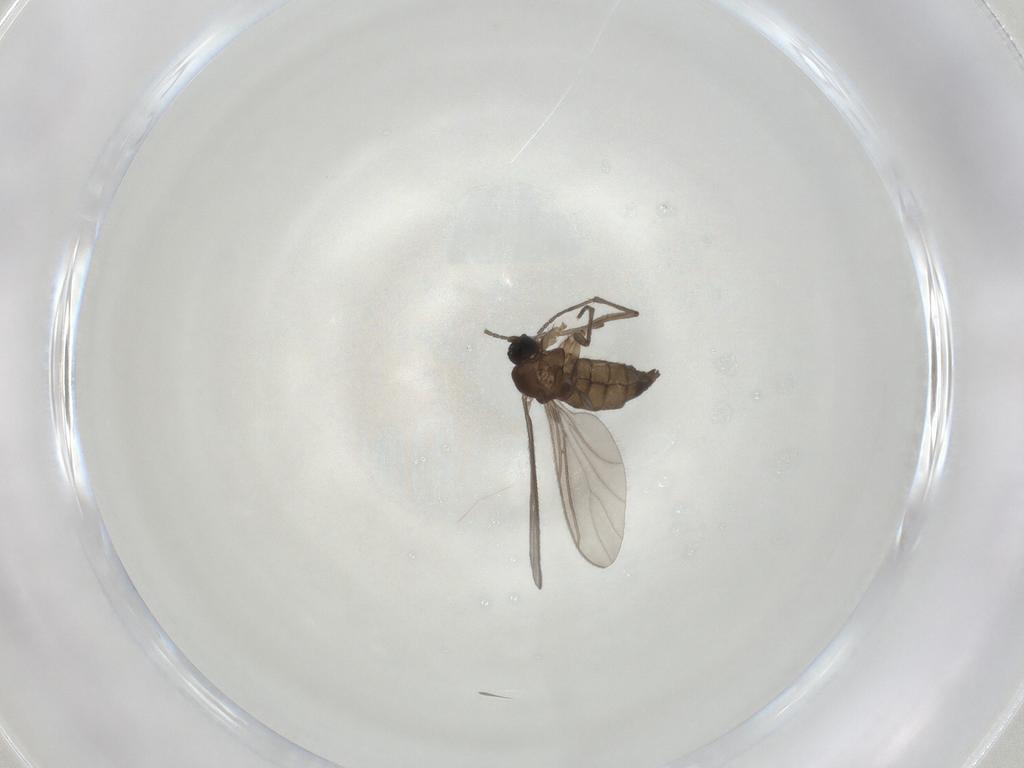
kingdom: Animalia
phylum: Arthropoda
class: Insecta
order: Diptera
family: Sciaridae
